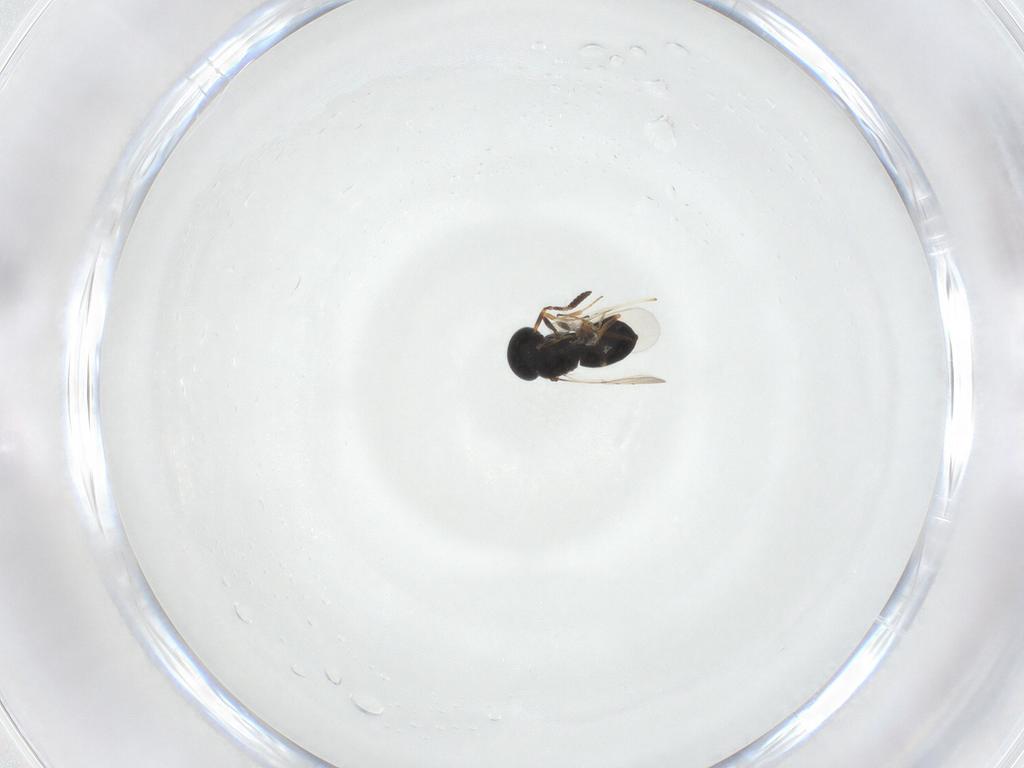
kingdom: Animalia
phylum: Arthropoda
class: Insecta
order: Hymenoptera
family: Scelionidae
